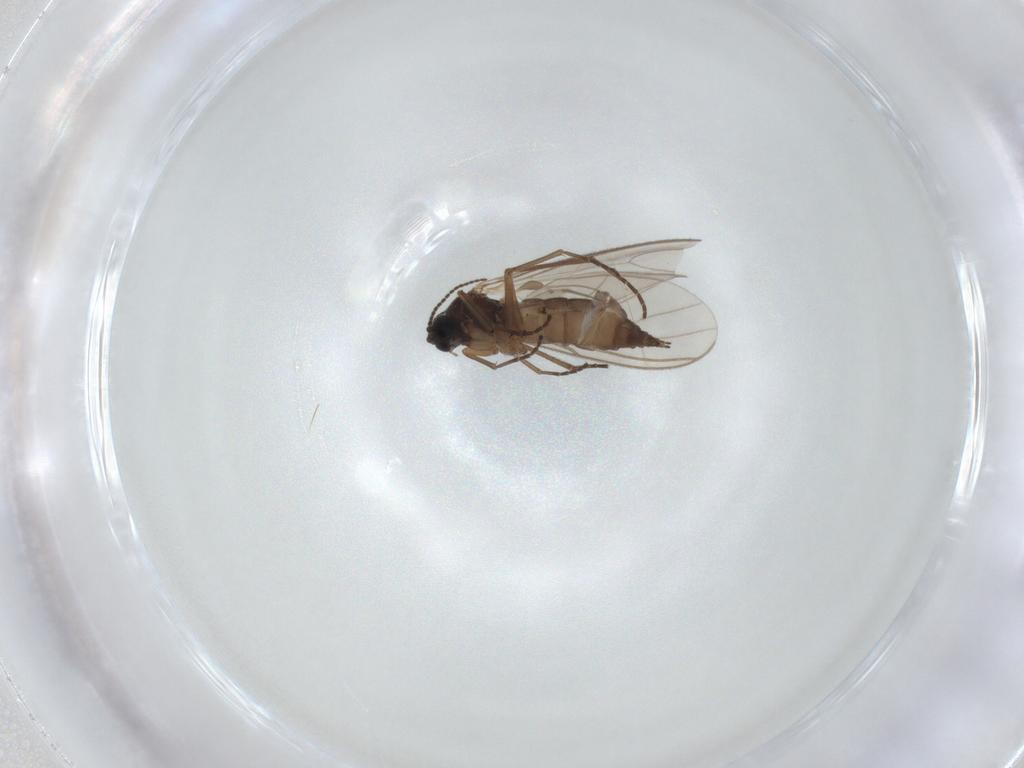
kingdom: Animalia
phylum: Arthropoda
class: Insecta
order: Diptera
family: Sciaridae
